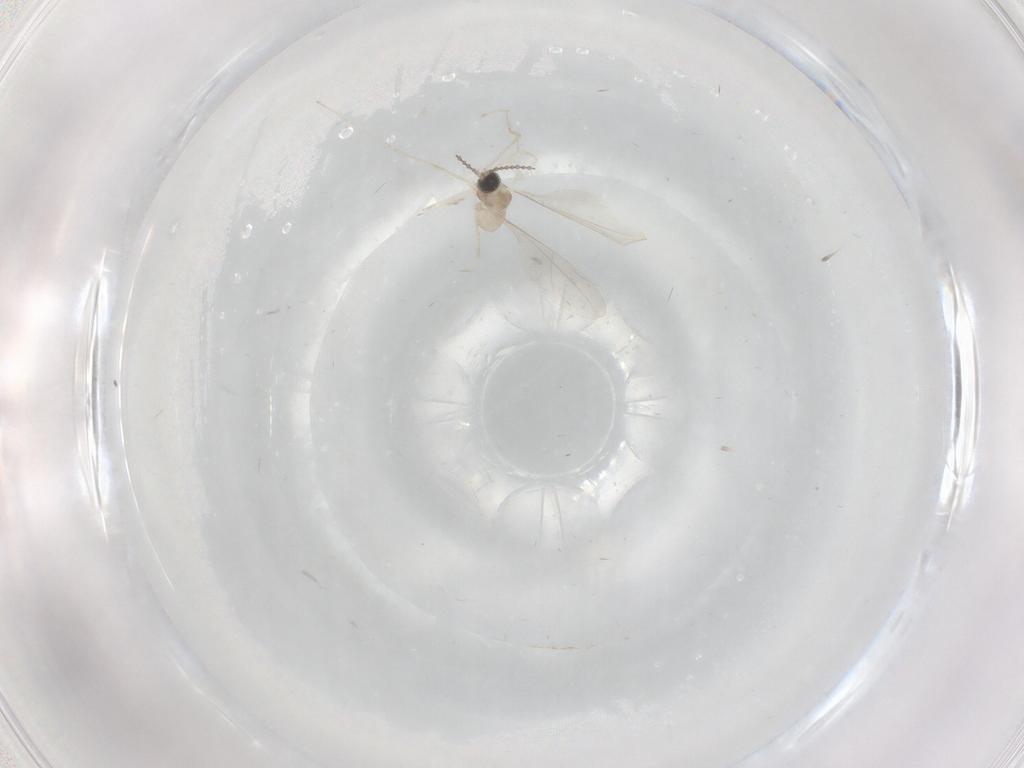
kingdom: Animalia
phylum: Arthropoda
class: Insecta
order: Diptera
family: Cecidomyiidae
